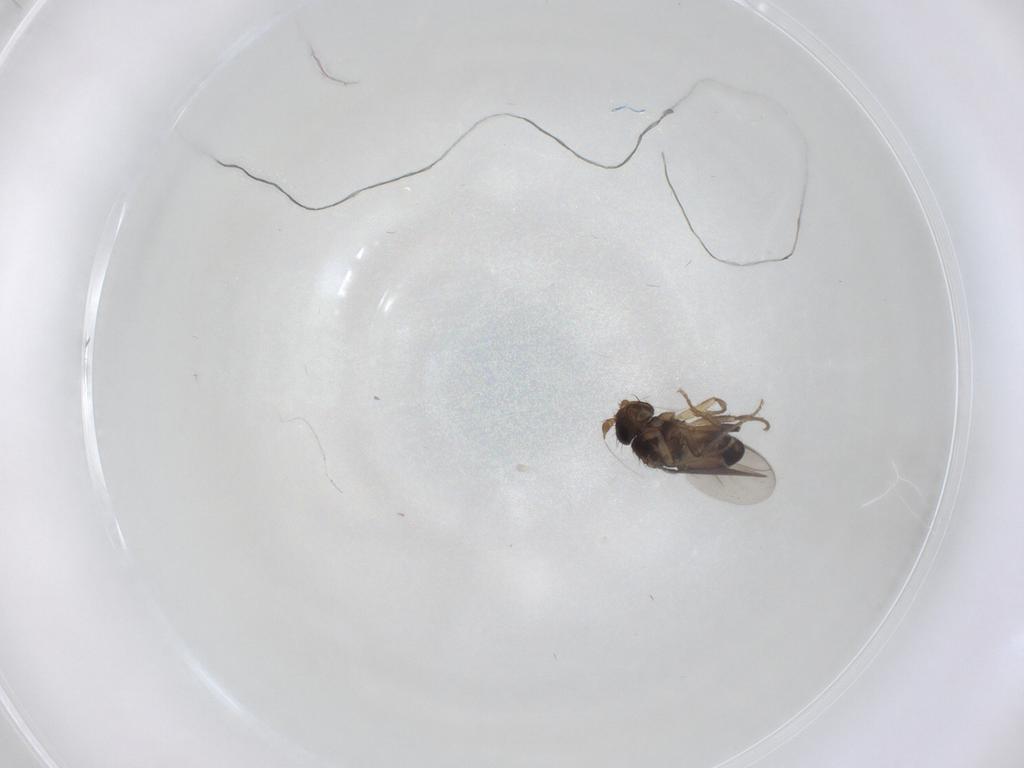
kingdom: Animalia
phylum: Arthropoda
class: Insecta
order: Diptera
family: Sphaeroceridae
